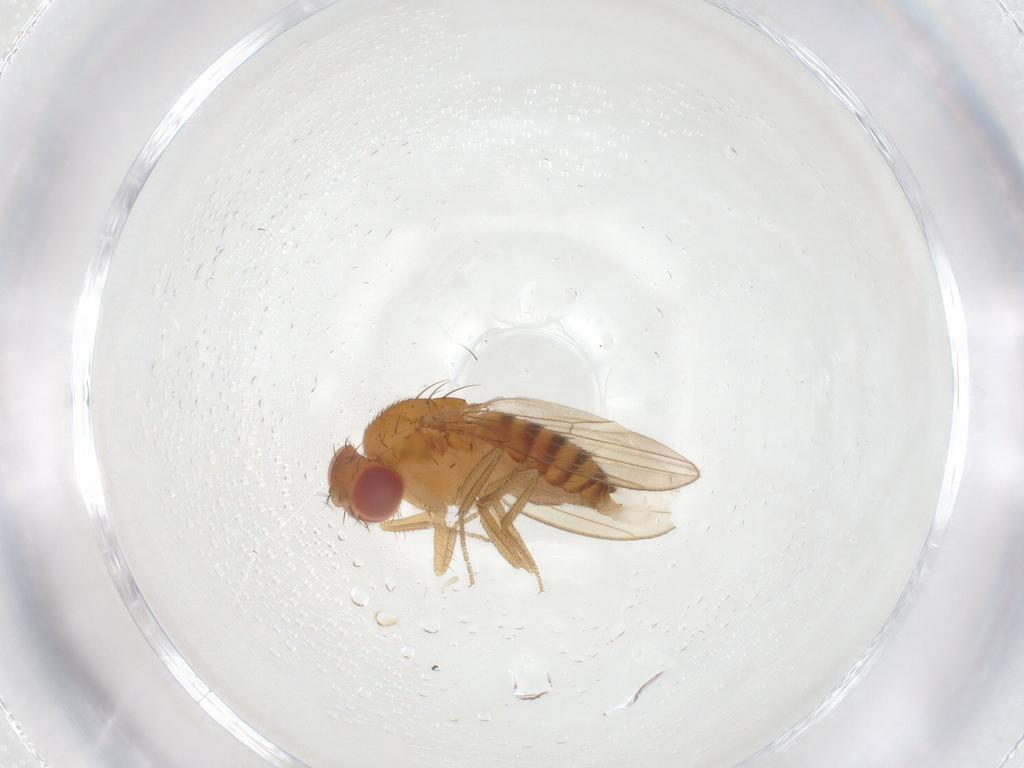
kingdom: Animalia
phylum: Arthropoda
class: Insecta
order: Diptera
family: Drosophilidae
